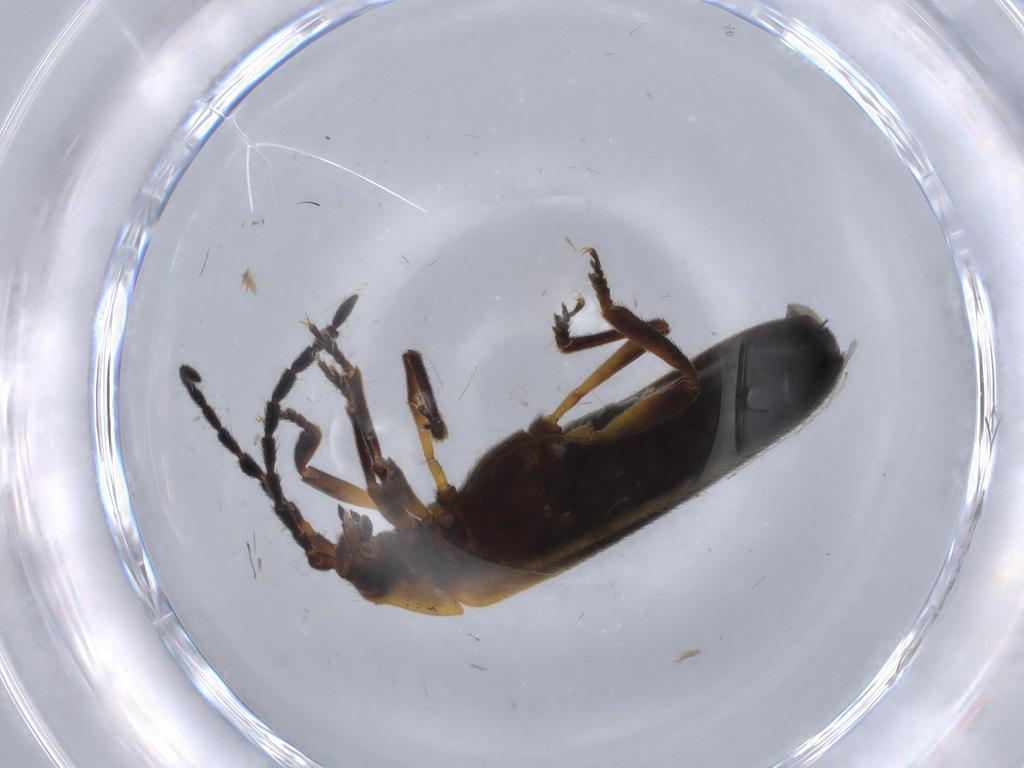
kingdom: Animalia
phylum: Arthropoda
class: Insecta
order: Coleoptera
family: Lycidae
